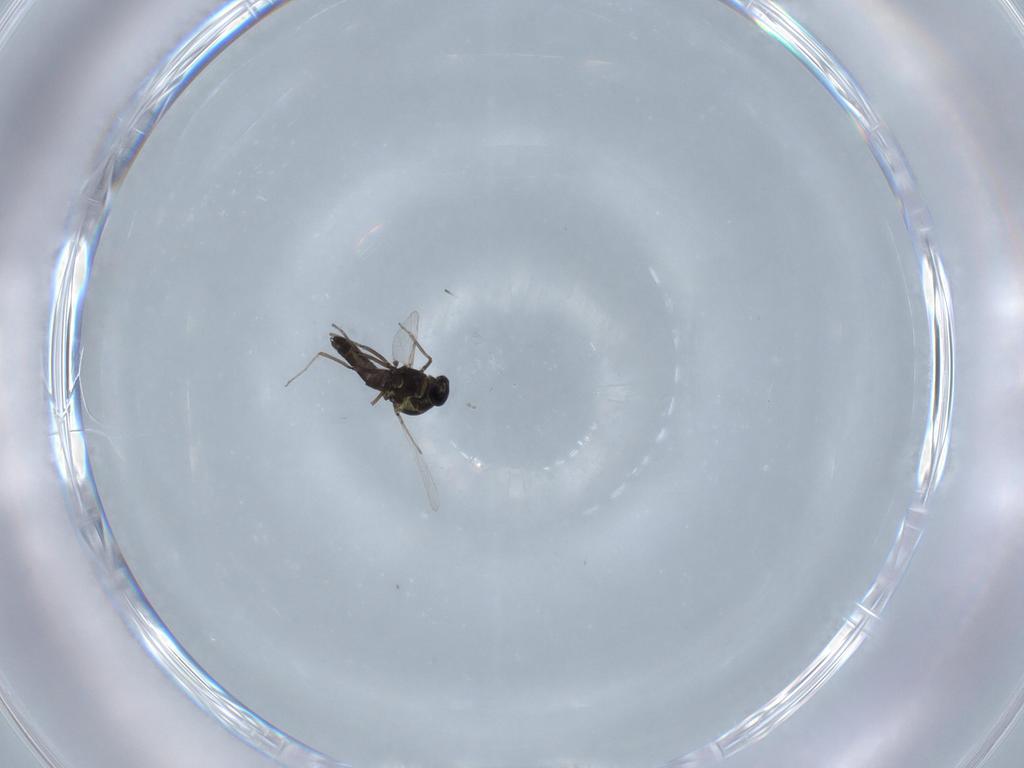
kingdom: Animalia
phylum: Arthropoda
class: Insecta
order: Diptera
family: Ceratopogonidae
